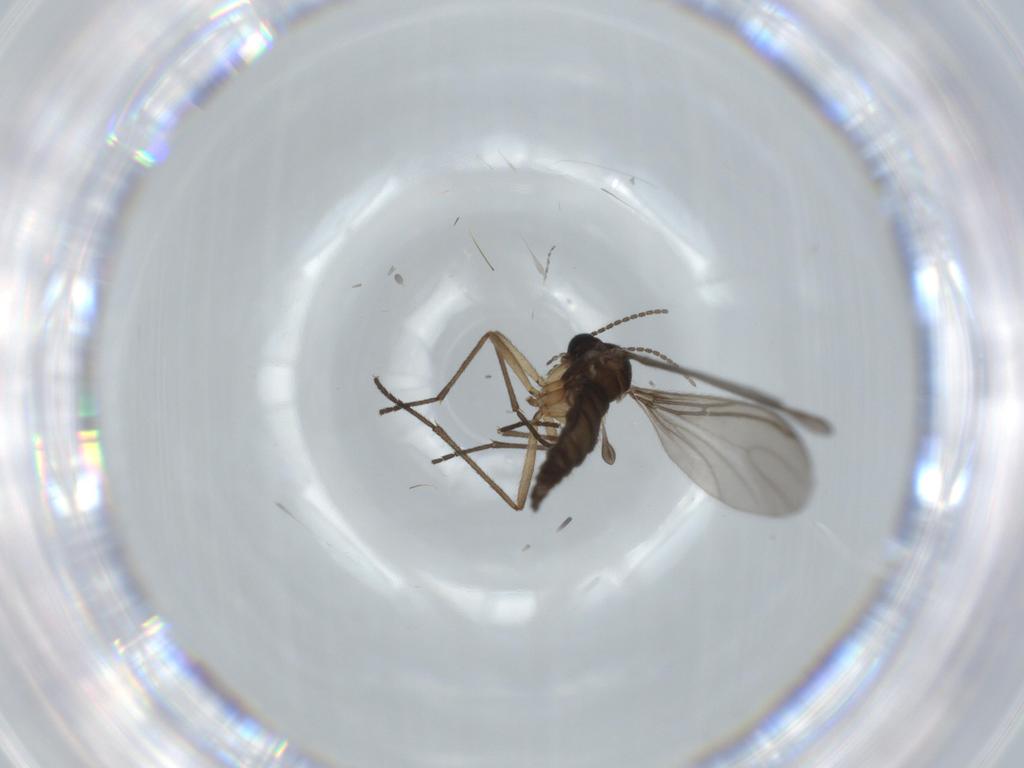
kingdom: Animalia
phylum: Arthropoda
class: Insecta
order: Diptera
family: Sciaridae
